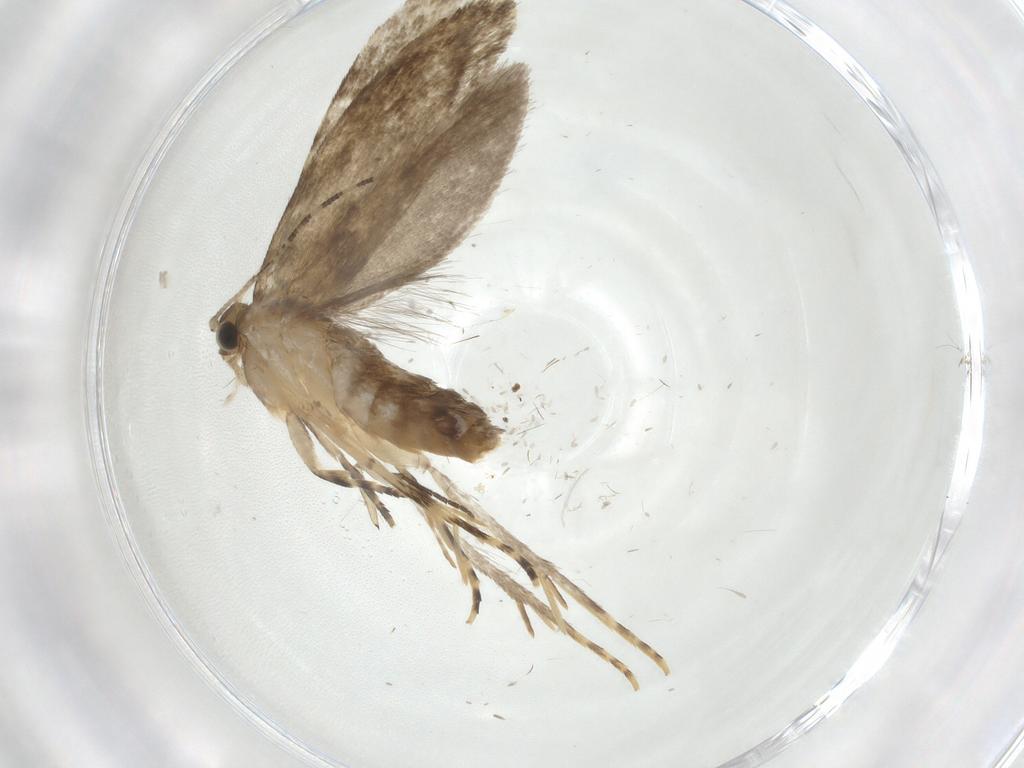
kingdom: Animalia
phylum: Arthropoda
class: Insecta
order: Lepidoptera
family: Tineidae
